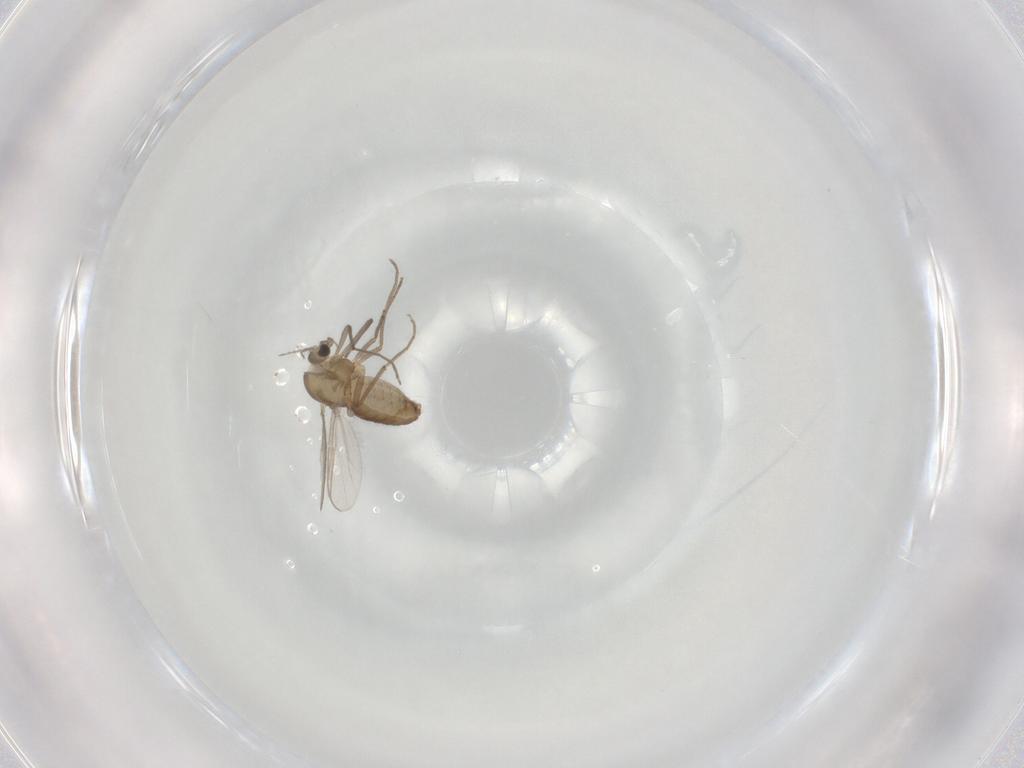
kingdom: Animalia
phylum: Arthropoda
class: Insecta
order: Diptera
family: Chironomidae
